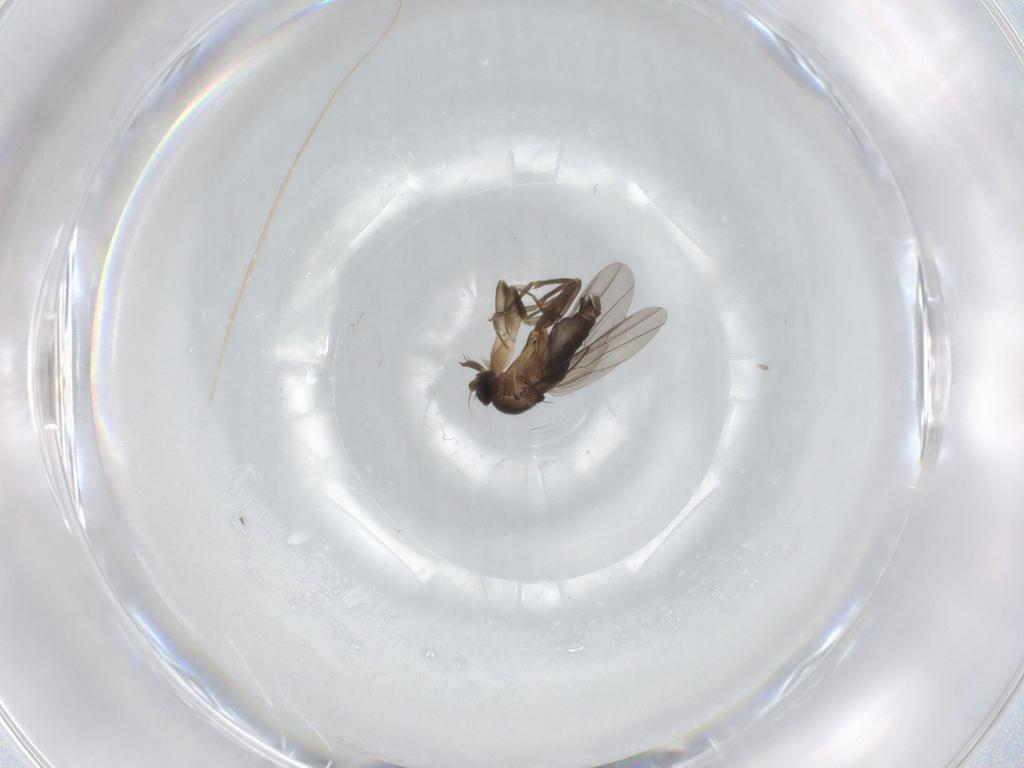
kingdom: Animalia
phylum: Arthropoda
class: Insecta
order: Diptera
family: Phoridae
